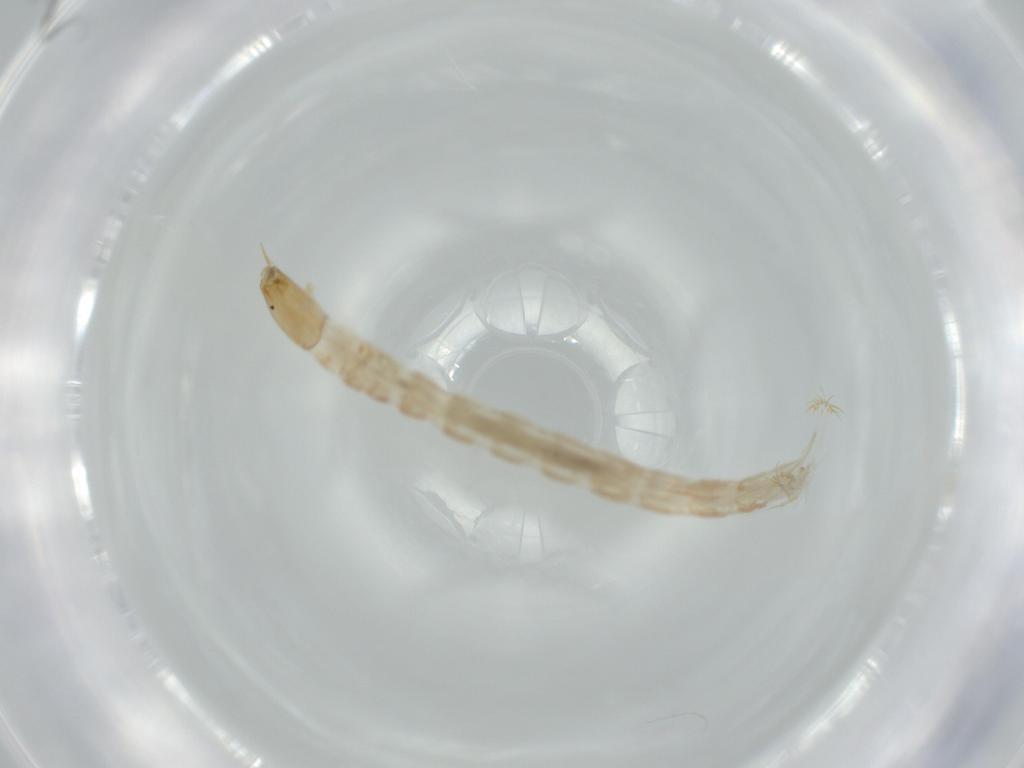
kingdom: Animalia
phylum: Arthropoda
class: Insecta
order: Diptera
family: Chironomidae
